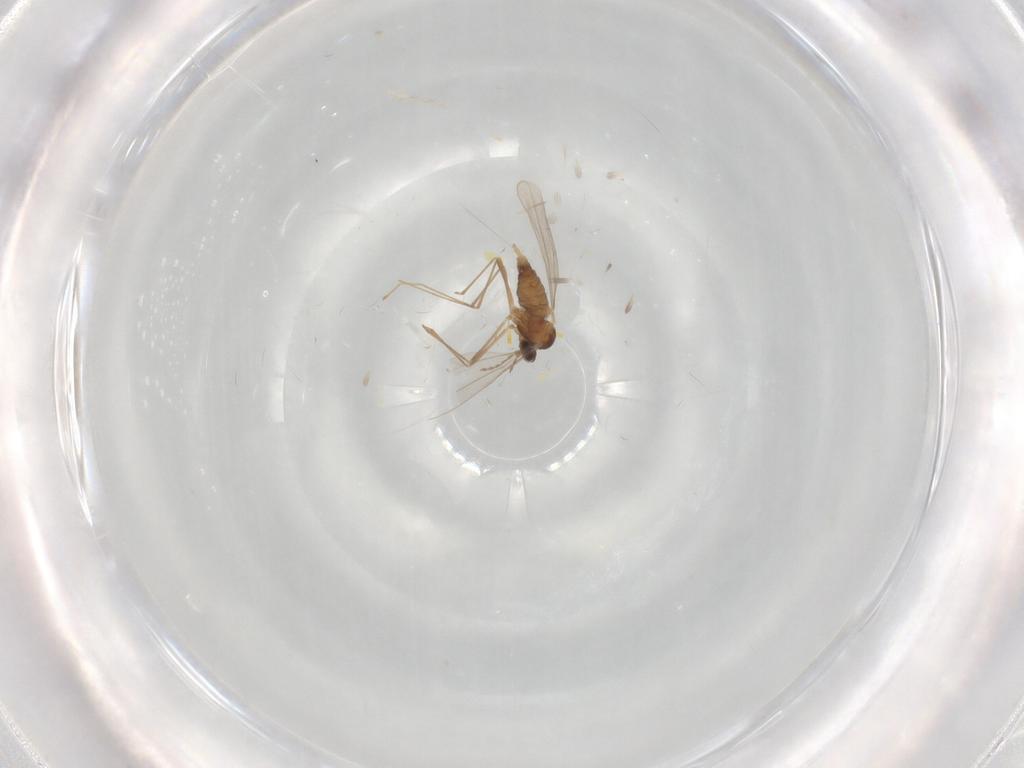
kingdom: Animalia
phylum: Arthropoda
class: Insecta
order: Diptera
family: Cecidomyiidae
